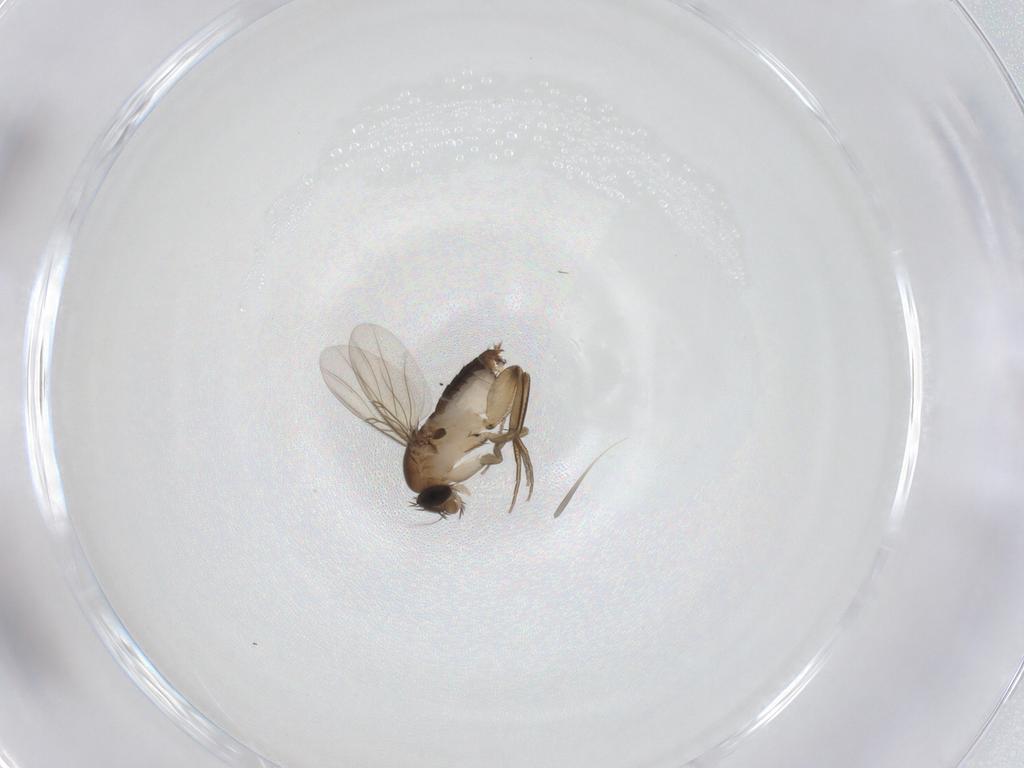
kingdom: Animalia
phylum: Arthropoda
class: Insecta
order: Diptera
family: Phoridae
